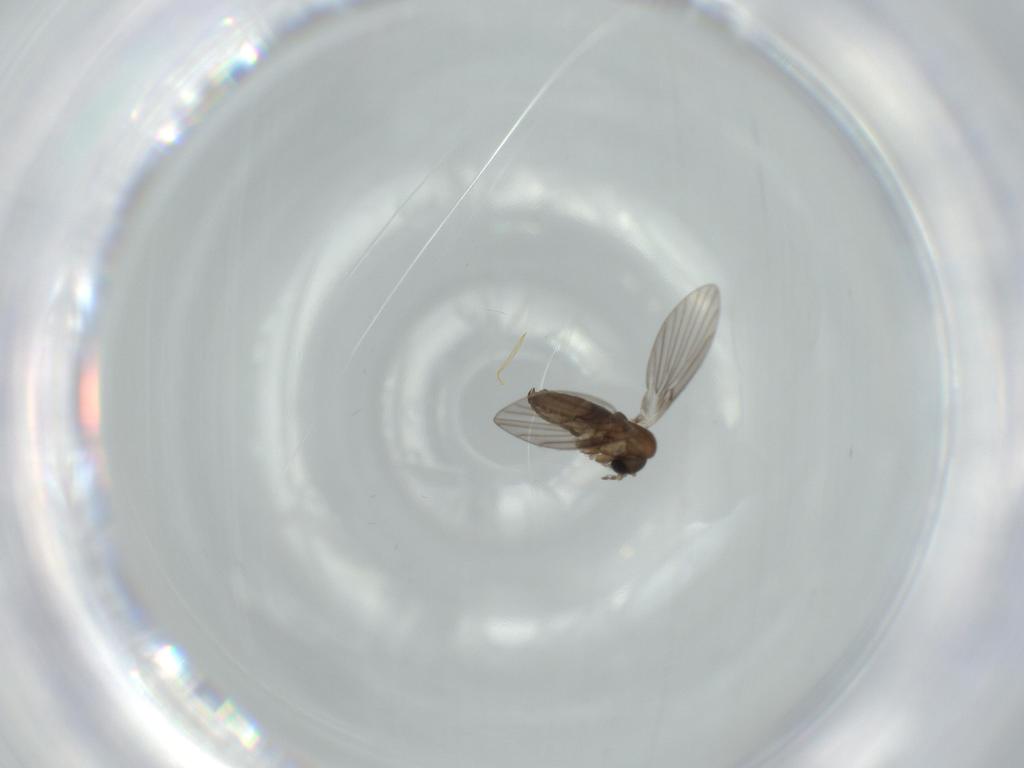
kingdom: Animalia
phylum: Arthropoda
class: Insecta
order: Diptera
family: Psychodidae
